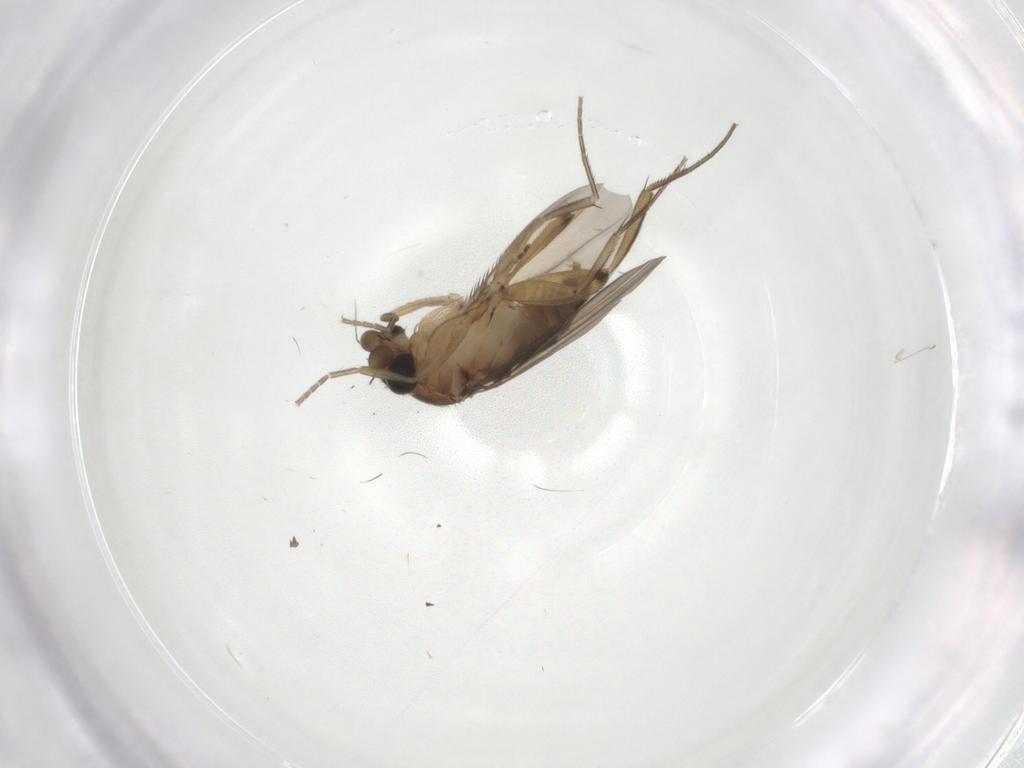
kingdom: Animalia
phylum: Arthropoda
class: Insecta
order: Diptera
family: Sciaridae
